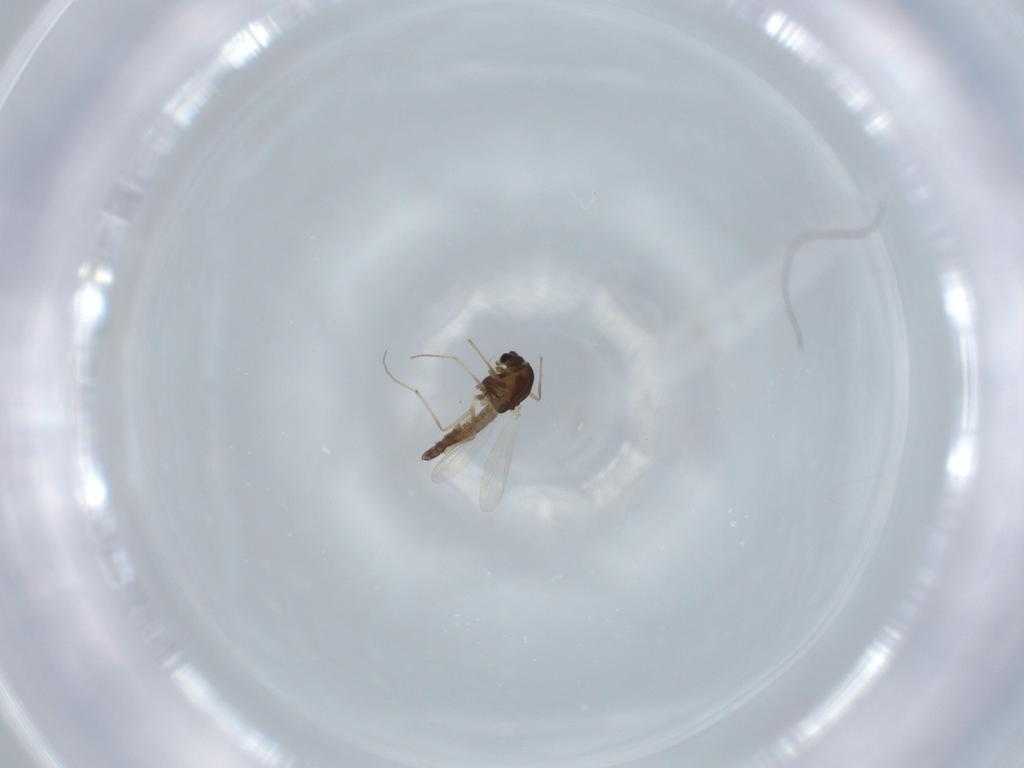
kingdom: Animalia
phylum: Arthropoda
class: Insecta
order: Diptera
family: Chironomidae
